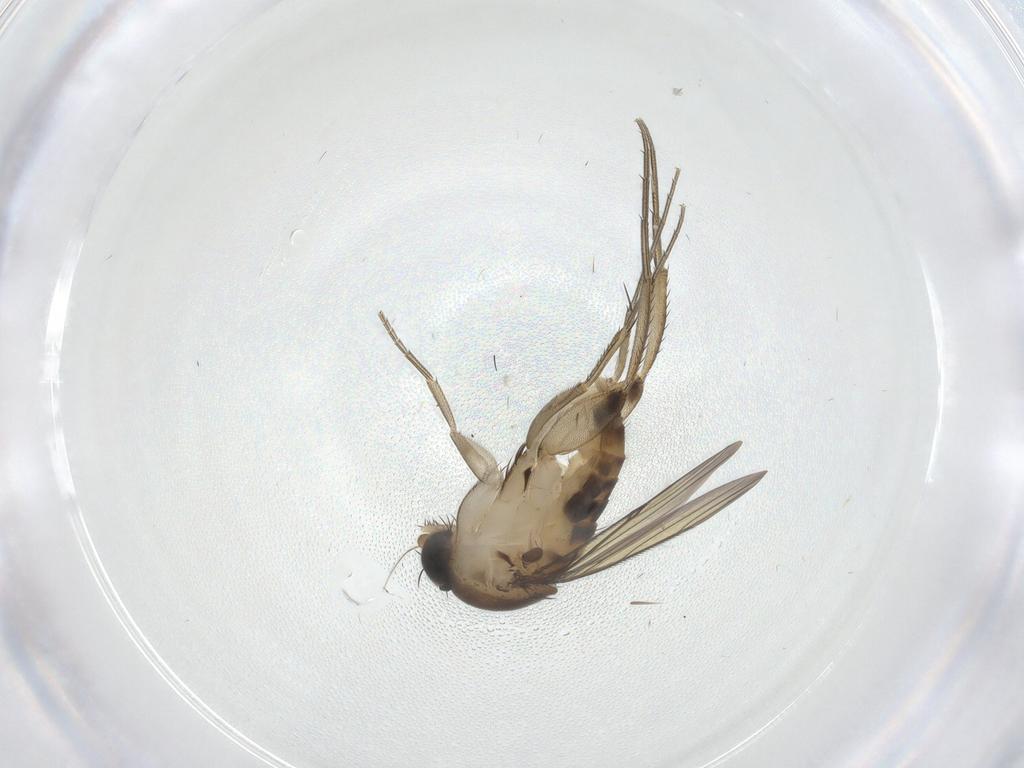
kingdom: Animalia
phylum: Arthropoda
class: Insecta
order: Diptera
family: Phoridae
